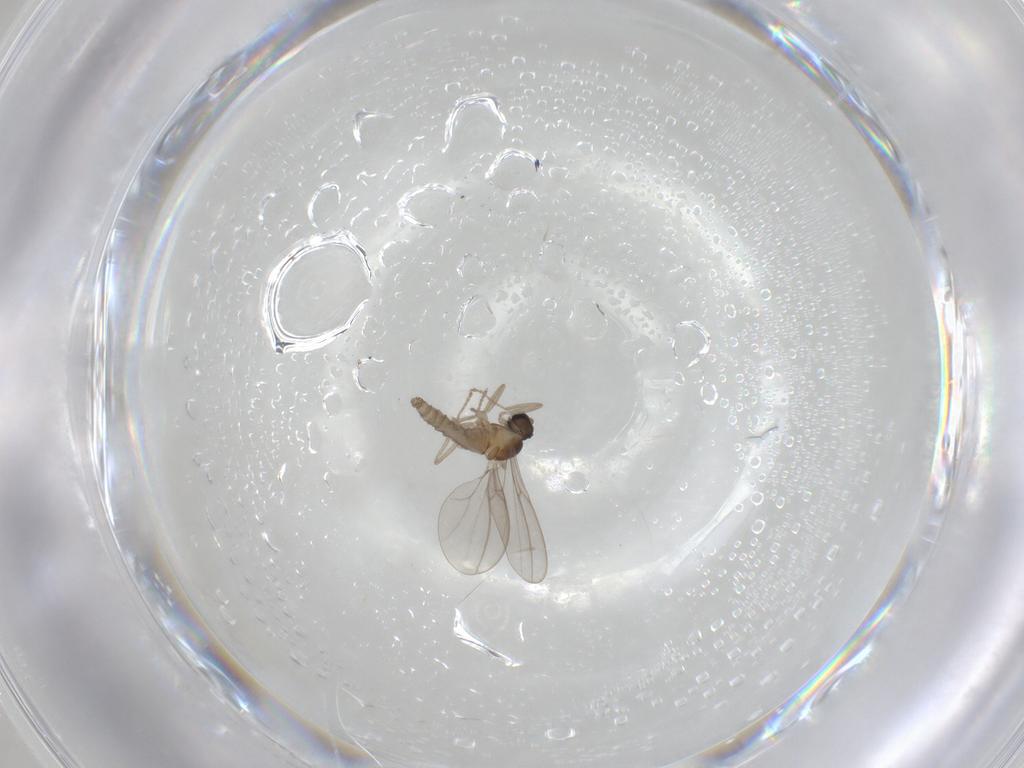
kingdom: Animalia
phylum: Arthropoda
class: Insecta
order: Diptera
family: Cecidomyiidae
